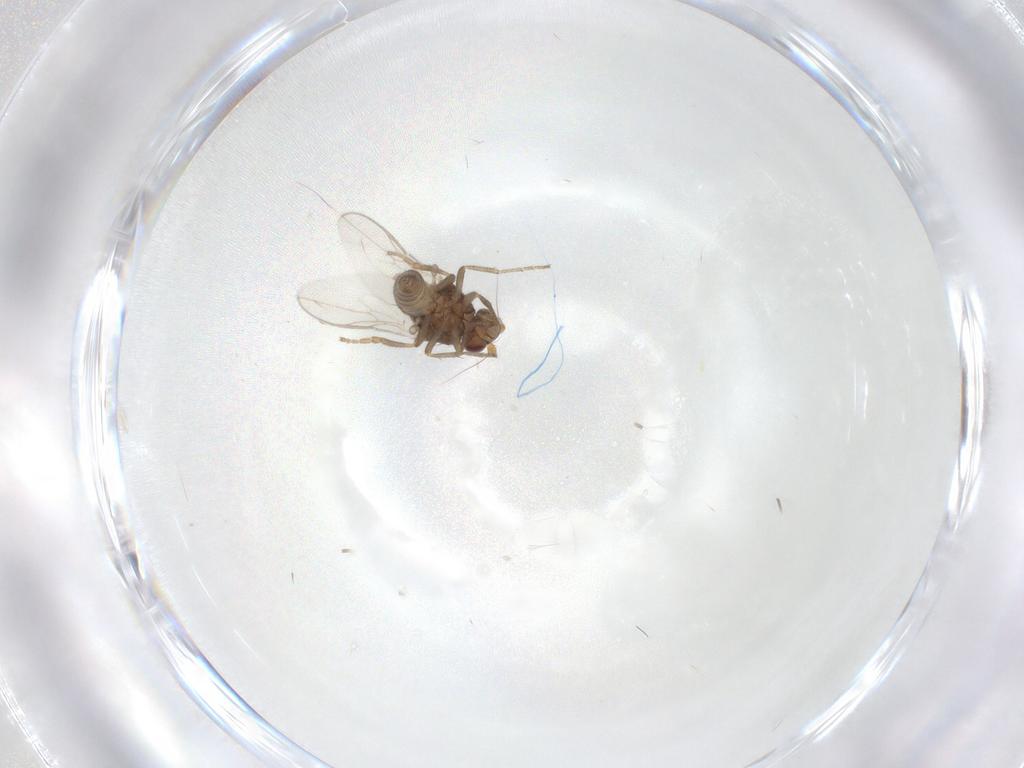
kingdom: Animalia
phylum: Arthropoda
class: Insecta
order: Diptera
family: Sphaeroceridae
